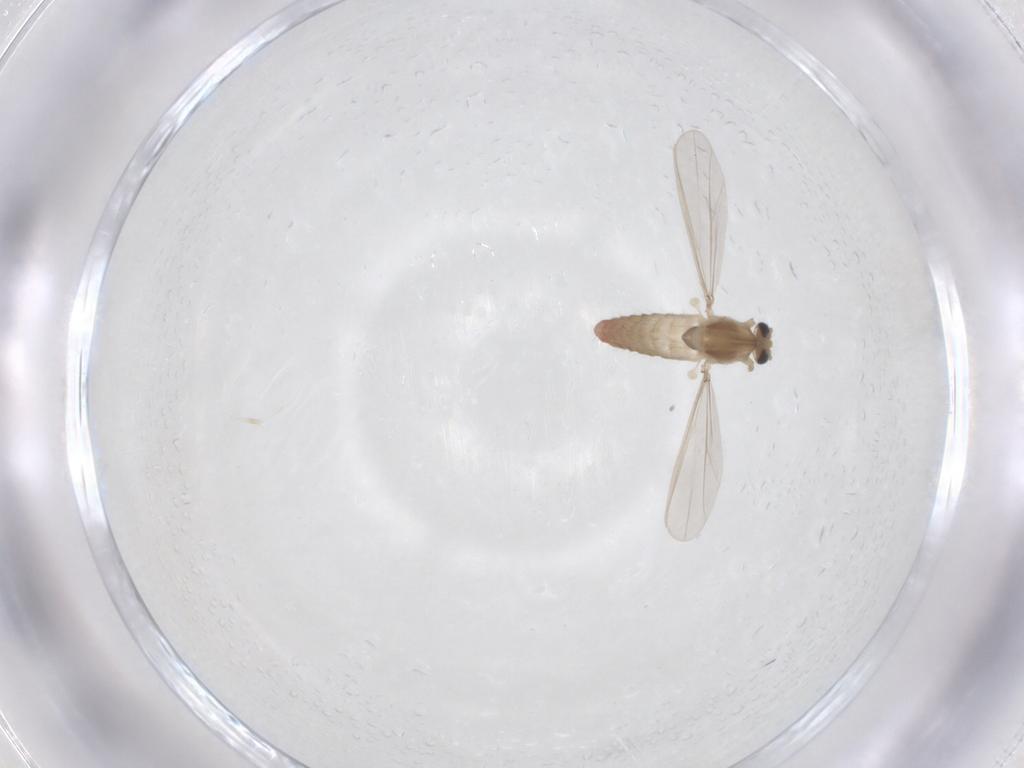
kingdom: Animalia
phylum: Arthropoda
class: Insecta
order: Diptera
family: Chironomidae
